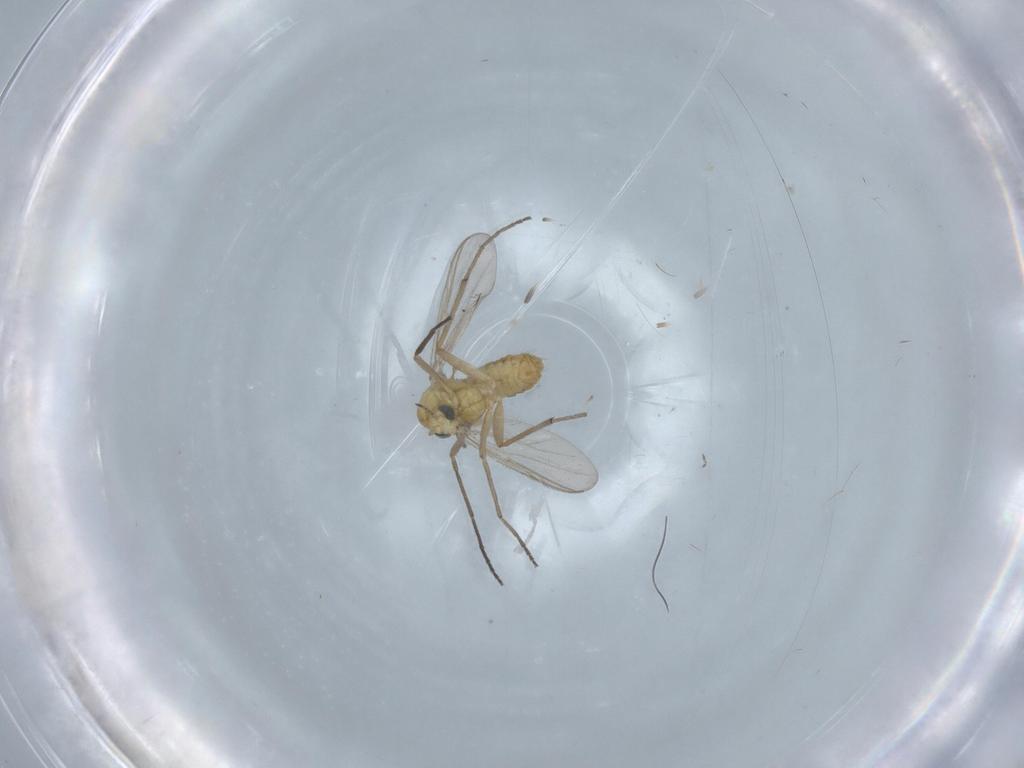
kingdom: Animalia
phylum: Arthropoda
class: Insecta
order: Diptera
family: Chironomidae
